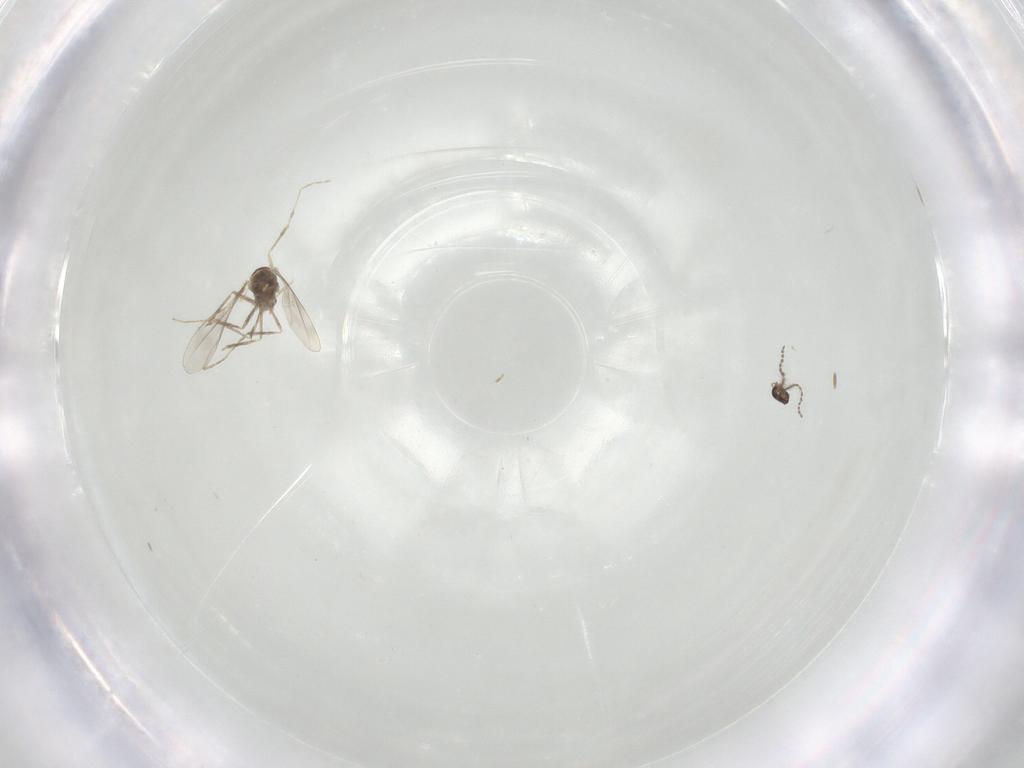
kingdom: Animalia
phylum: Arthropoda
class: Insecta
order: Diptera
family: Cecidomyiidae
